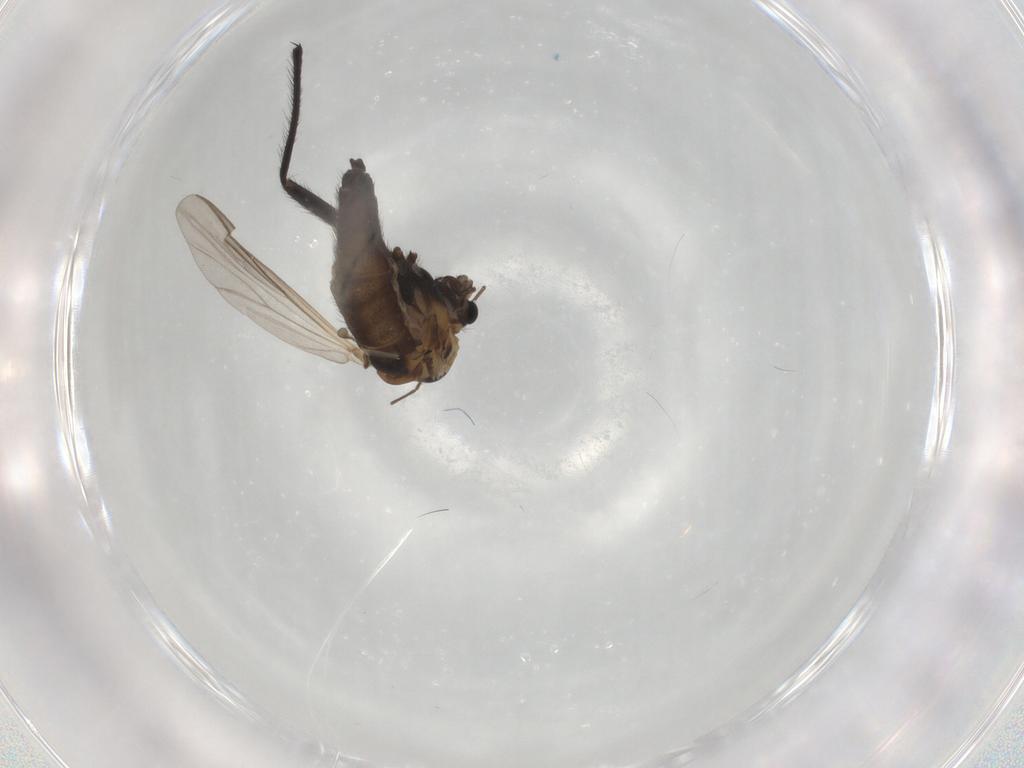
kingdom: Animalia
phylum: Arthropoda
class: Insecta
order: Diptera
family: Chironomidae
